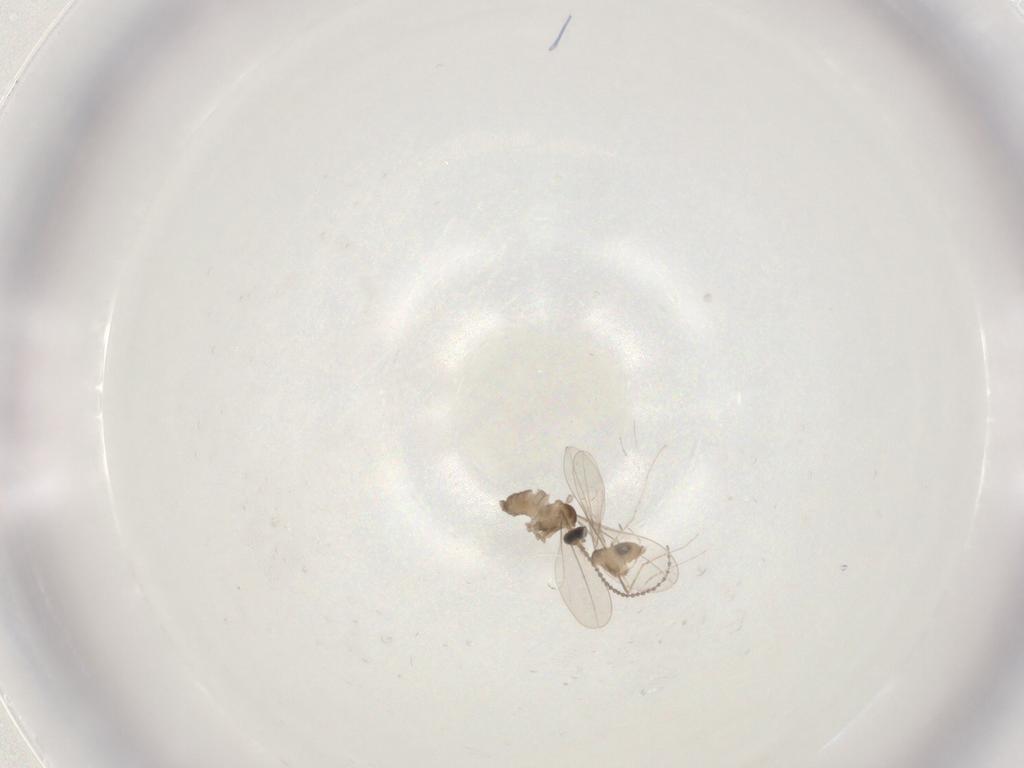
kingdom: Animalia
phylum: Arthropoda
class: Insecta
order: Diptera
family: Cecidomyiidae
